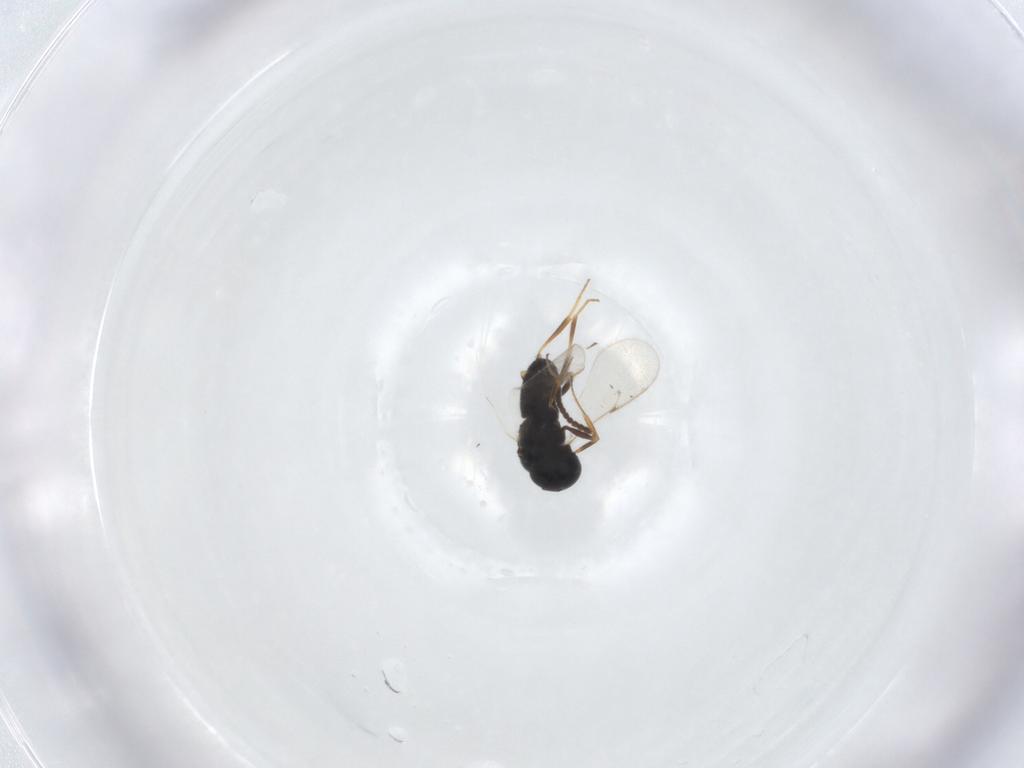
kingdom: Animalia
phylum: Arthropoda
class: Insecta
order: Hymenoptera
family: Scelionidae
